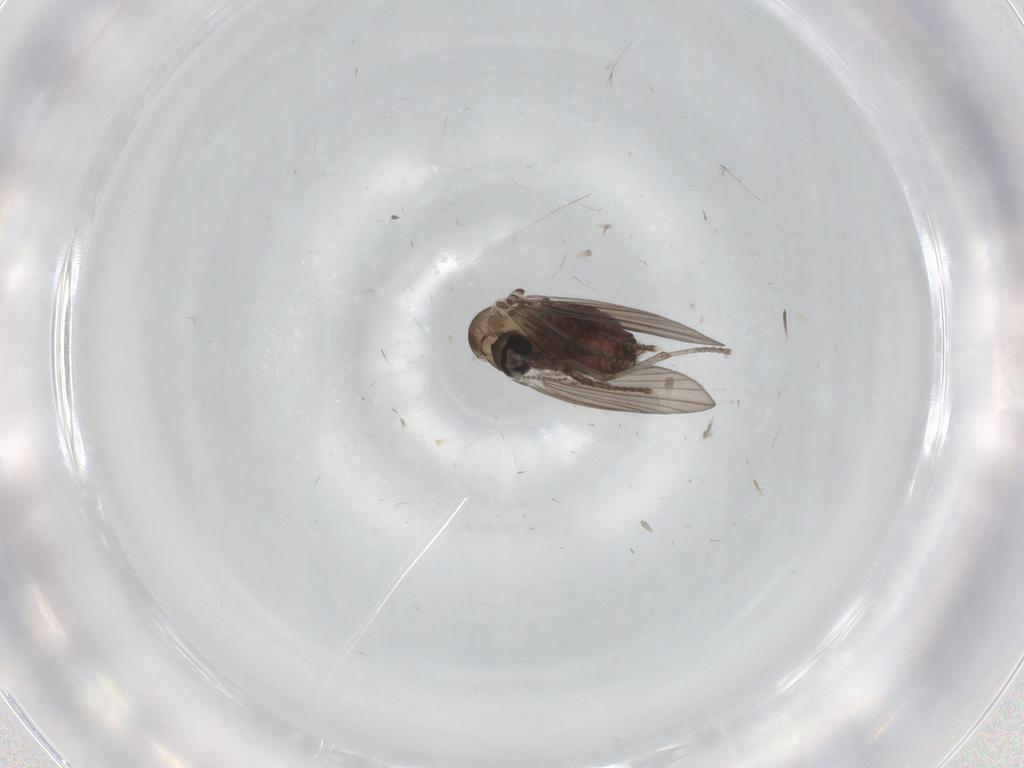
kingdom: Animalia
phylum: Arthropoda
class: Insecta
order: Diptera
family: Psychodidae
